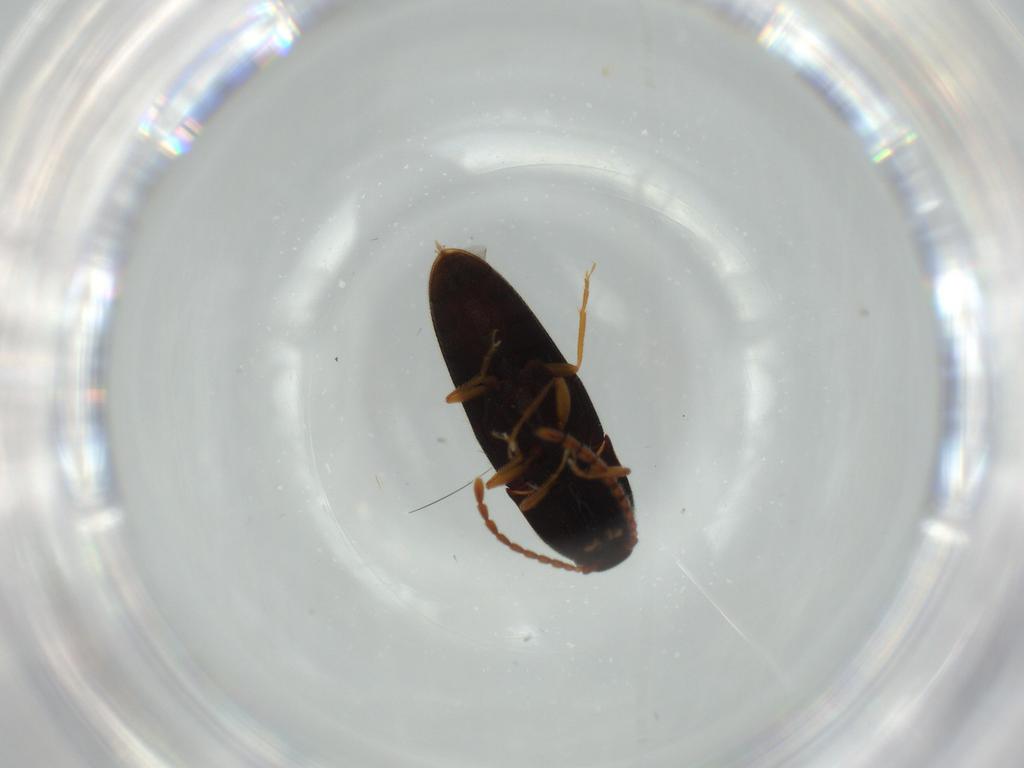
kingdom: Animalia
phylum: Arthropoda
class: Insecta
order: Coleoptera
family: Elateridae
